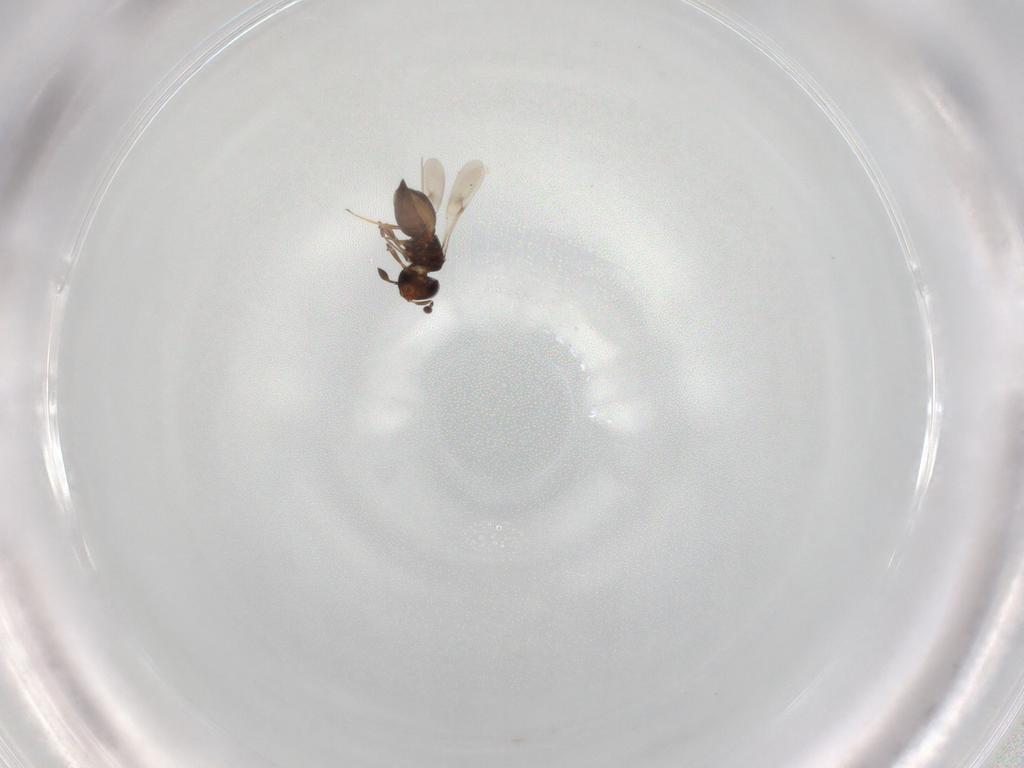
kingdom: Animalia
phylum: Arthropoda
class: Insecta
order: Hymenoptera
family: Scelionidae
